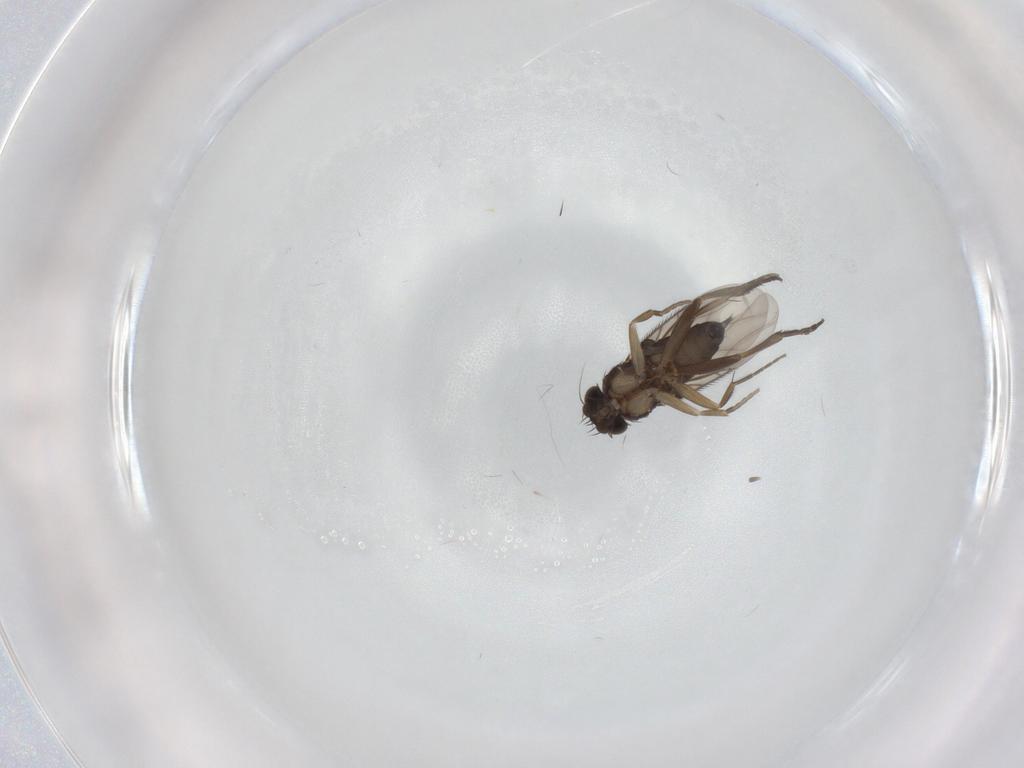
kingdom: Animalia
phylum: Arthropoda
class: Insecta
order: Diptera
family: Phoridae
